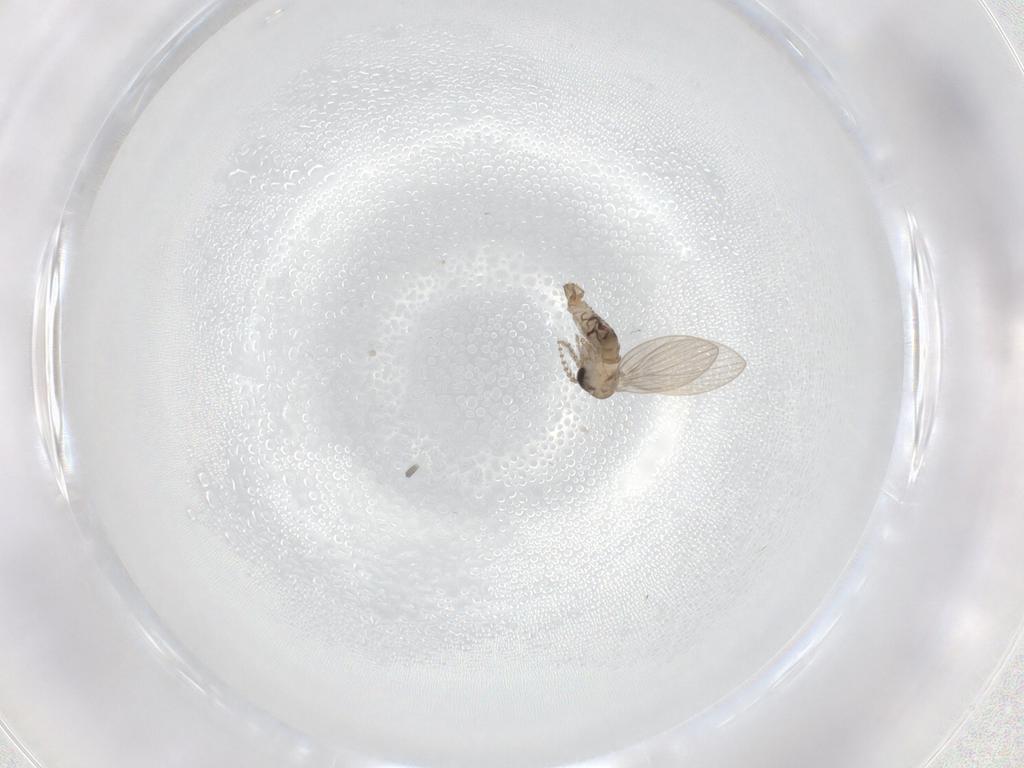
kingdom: Animalia
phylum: Arthropoda
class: Insecta
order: Diptera
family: Psychodidae
